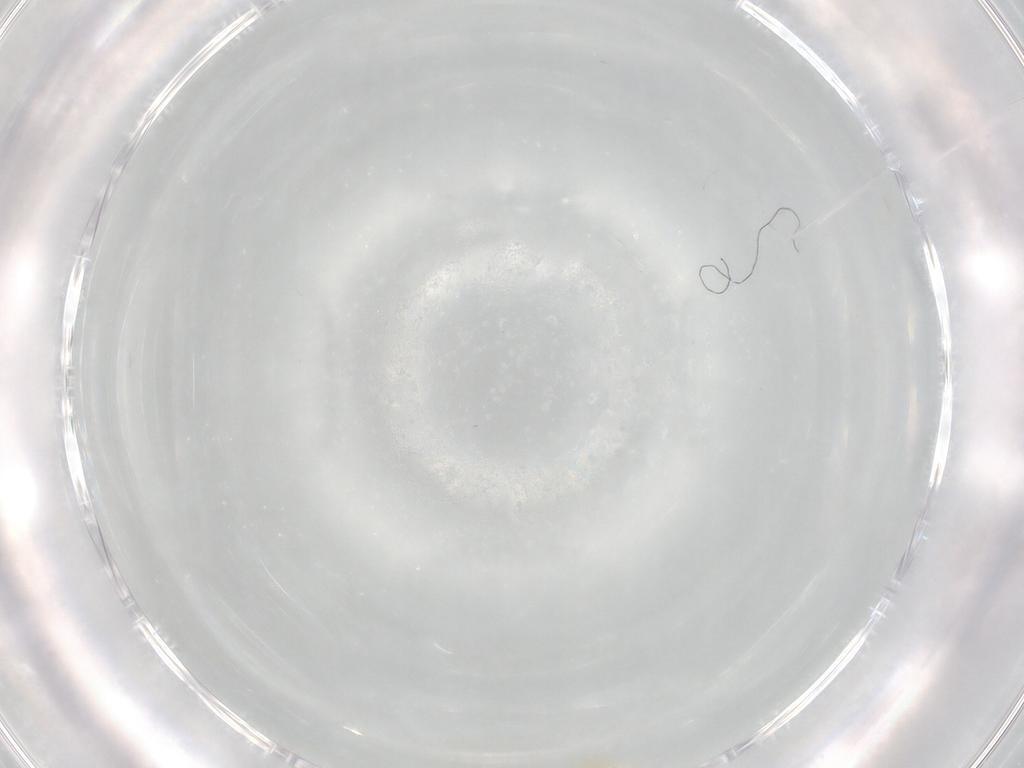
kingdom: Animalia
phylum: Arthropoda
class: Insecta
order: Hemiptera
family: Aleyrodidae
